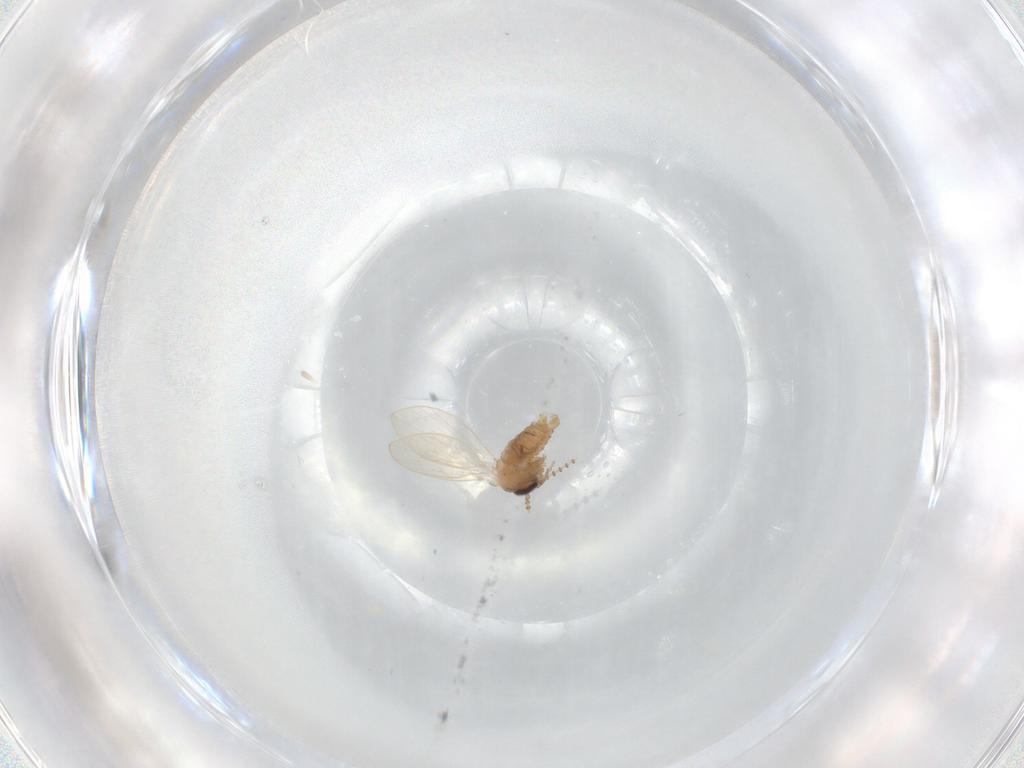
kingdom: Animalia
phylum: Arthropoda
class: Insecta
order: Diptera
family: Psychodidae
